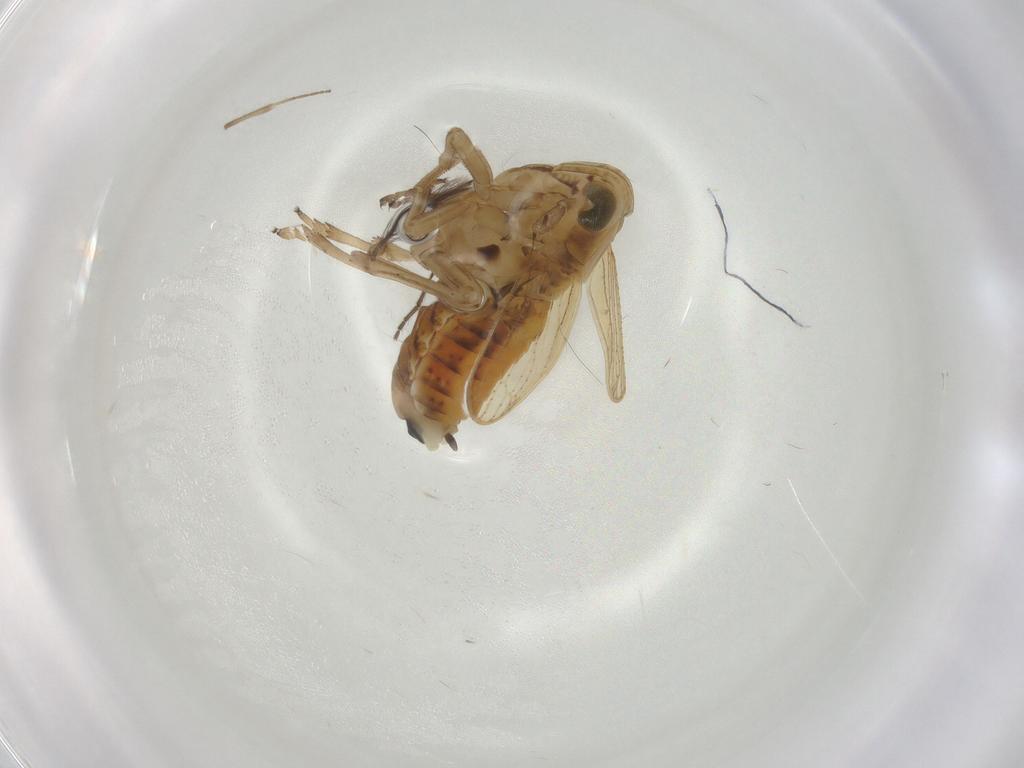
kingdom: Animalia
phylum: Arthropoda
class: Insecta
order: Hemiptera
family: Delphacidae
